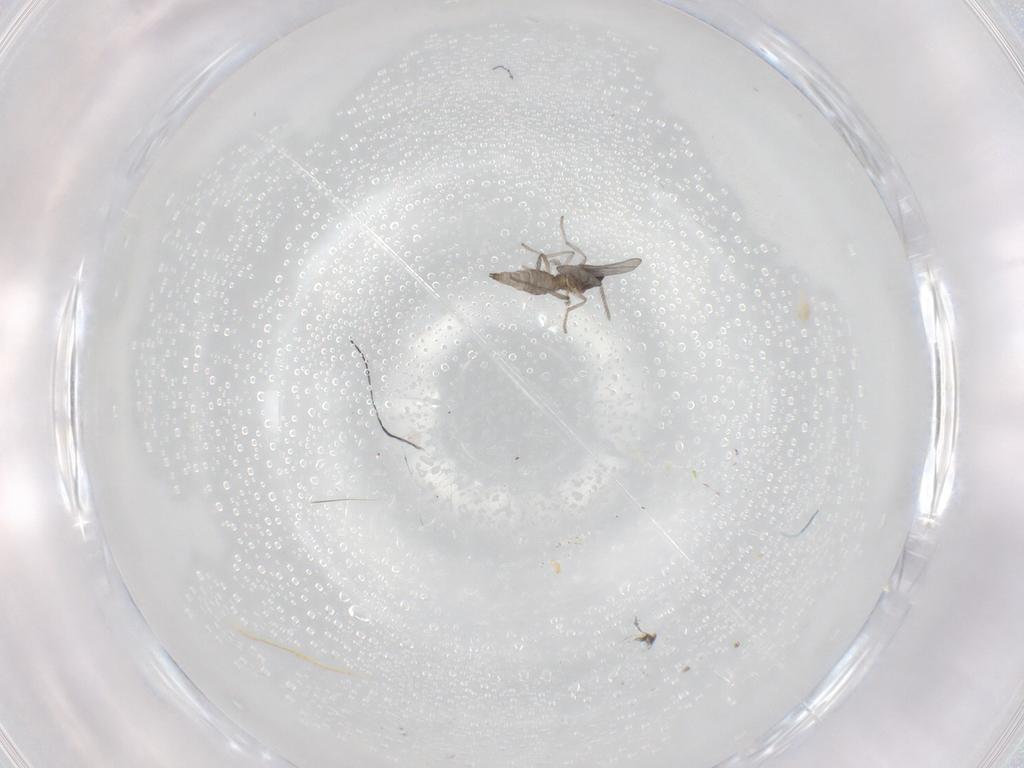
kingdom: Animalia
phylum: Arthropoda
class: Insecta
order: Diptera
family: Cecidomyiidae
